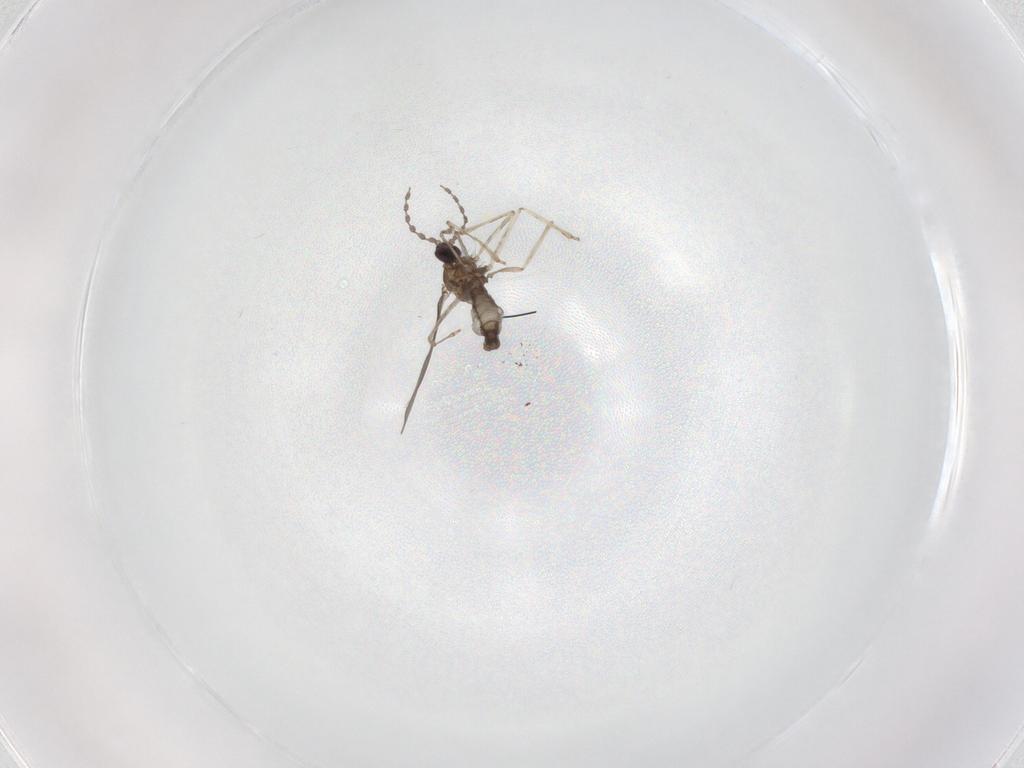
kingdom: Animalia
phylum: Arthropoda
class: Insecta
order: Diptera
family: Cecidomyiidae
